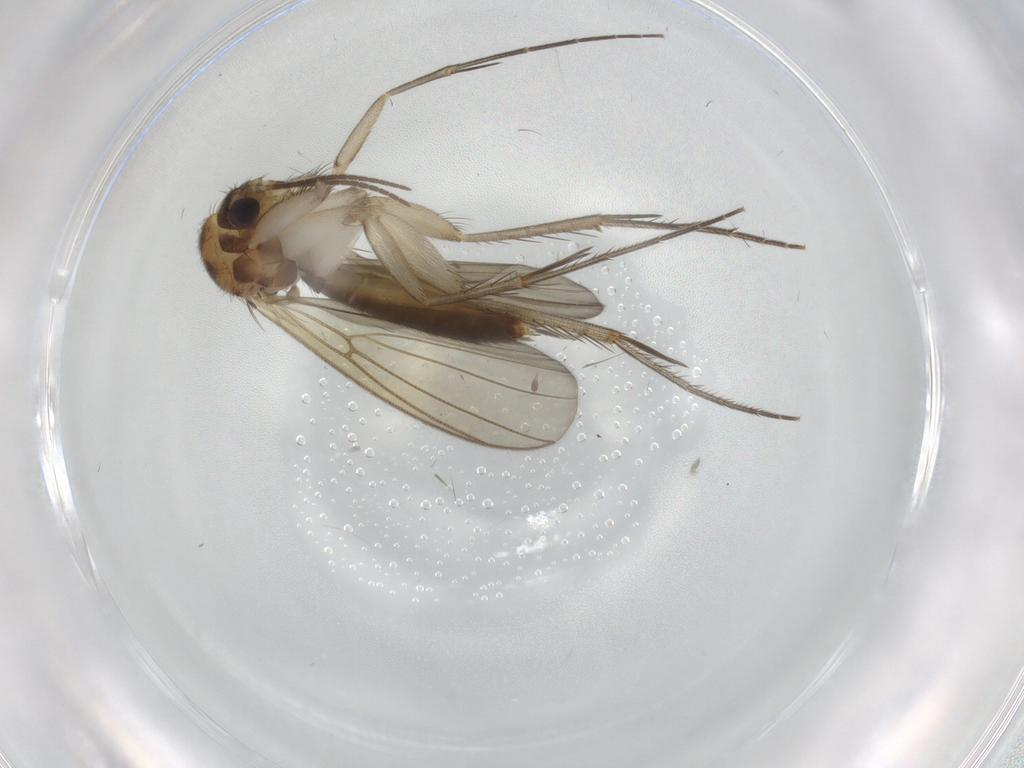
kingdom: Animalia
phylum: Arthropoda
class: Insecta
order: Diptera
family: Mycetophilidae
